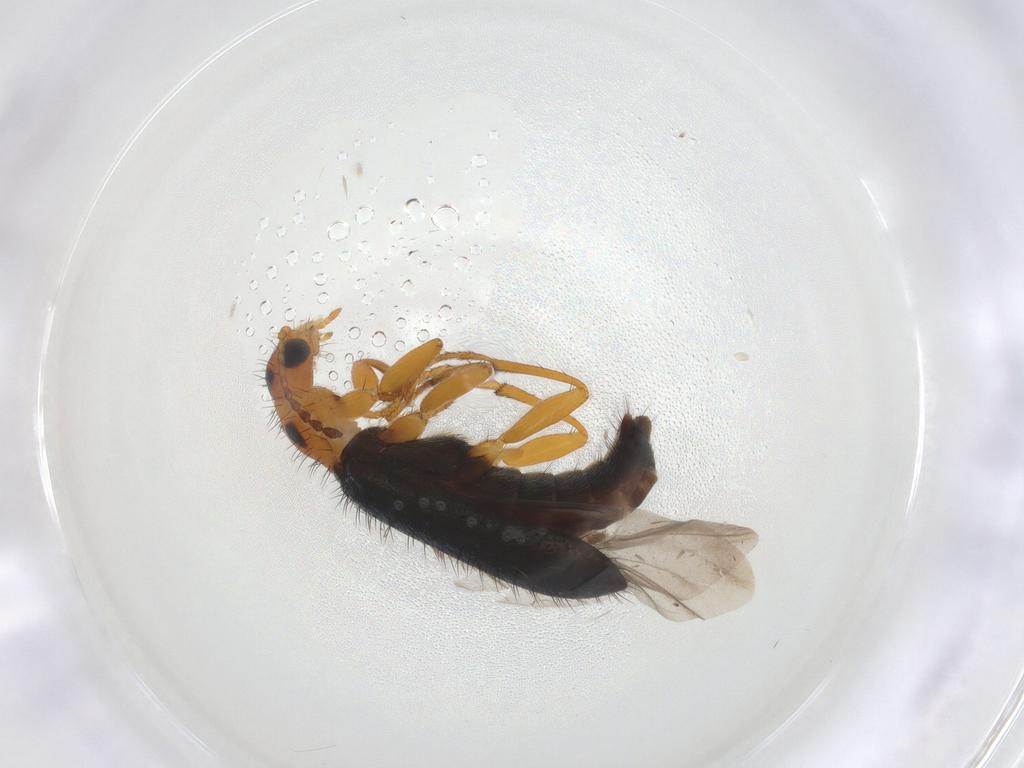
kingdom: Animalia
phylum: Arthropoda
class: Insecta
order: Coleoptera
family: Melyridae
